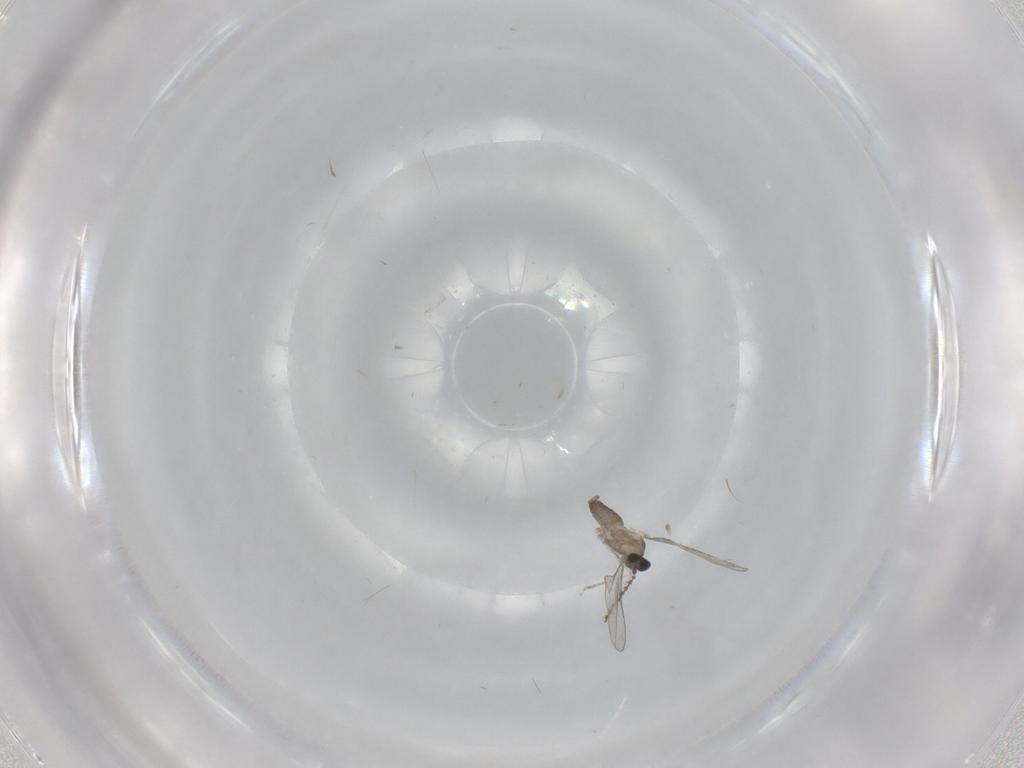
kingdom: Animalia
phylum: Arthropoda
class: Insecta
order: Diptera
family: Cecidomyiidae
